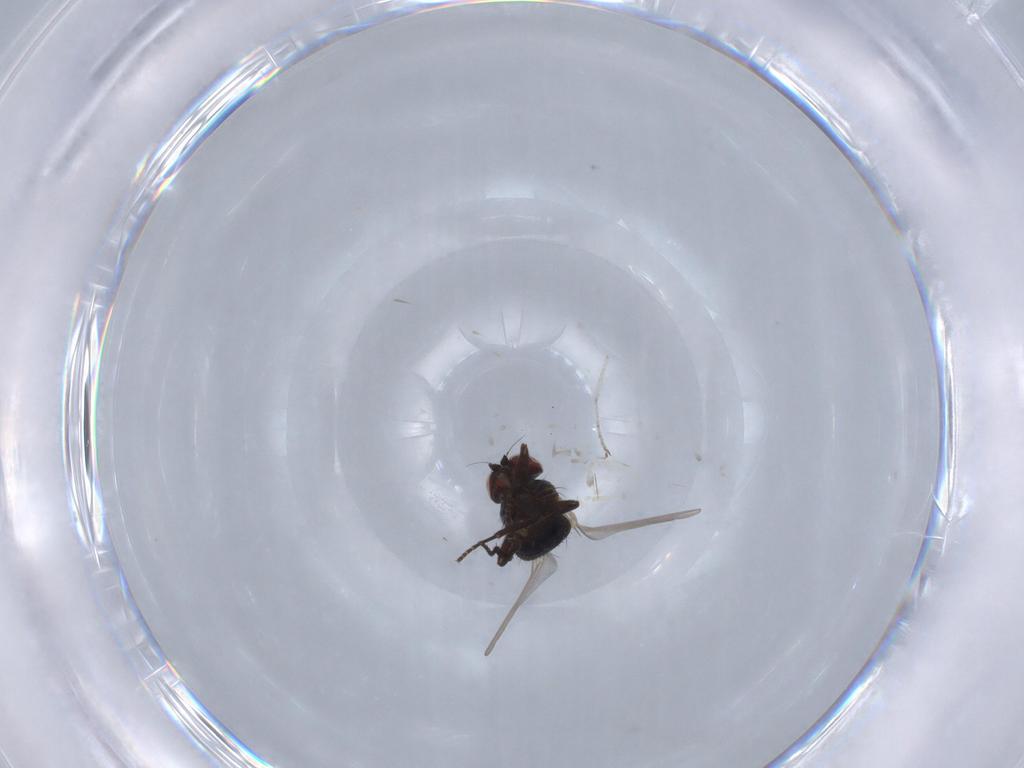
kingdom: Animalia
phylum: Arthropoda
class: Insecta
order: Diptera
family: Agromyzidae
